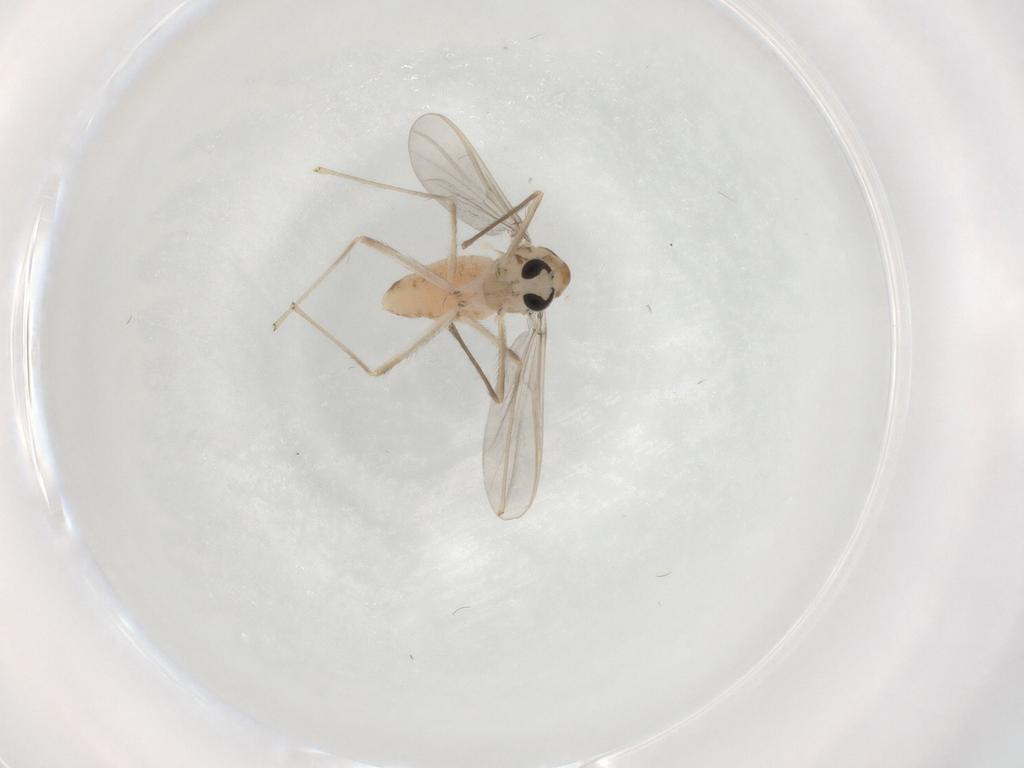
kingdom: Animalia
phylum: Arthropoda
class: Insecta
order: Diptera
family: Chironomidae
